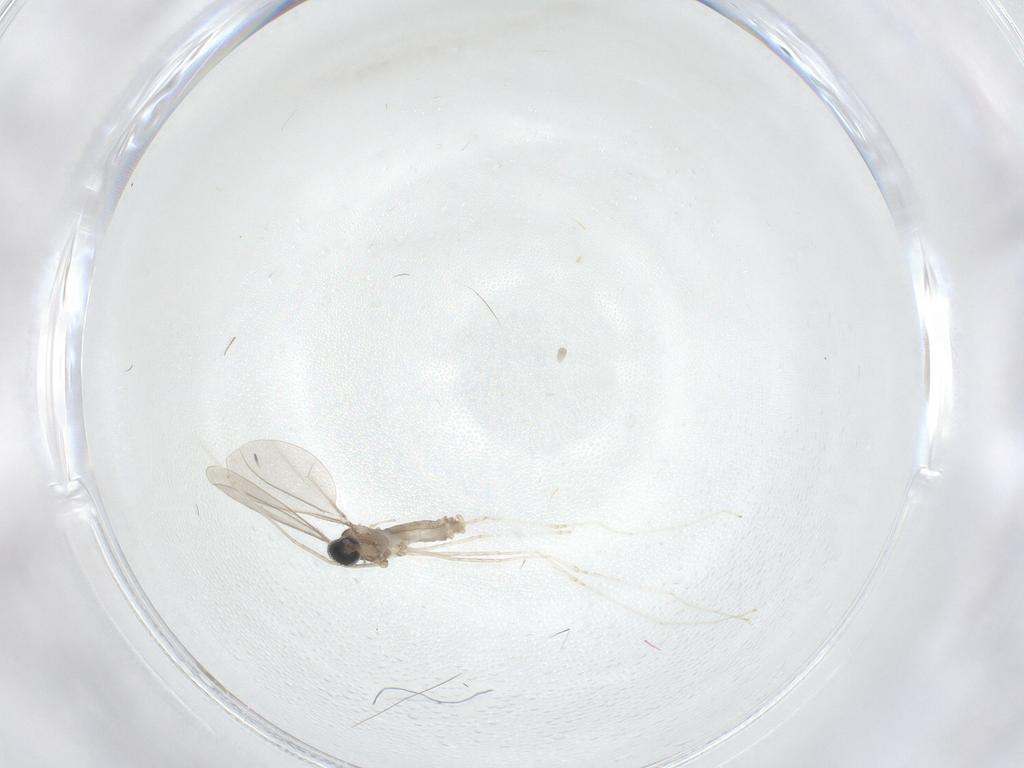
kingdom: Animalia
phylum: Arthropoda
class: Insecta
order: Diptera
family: Cecidomyiidae
